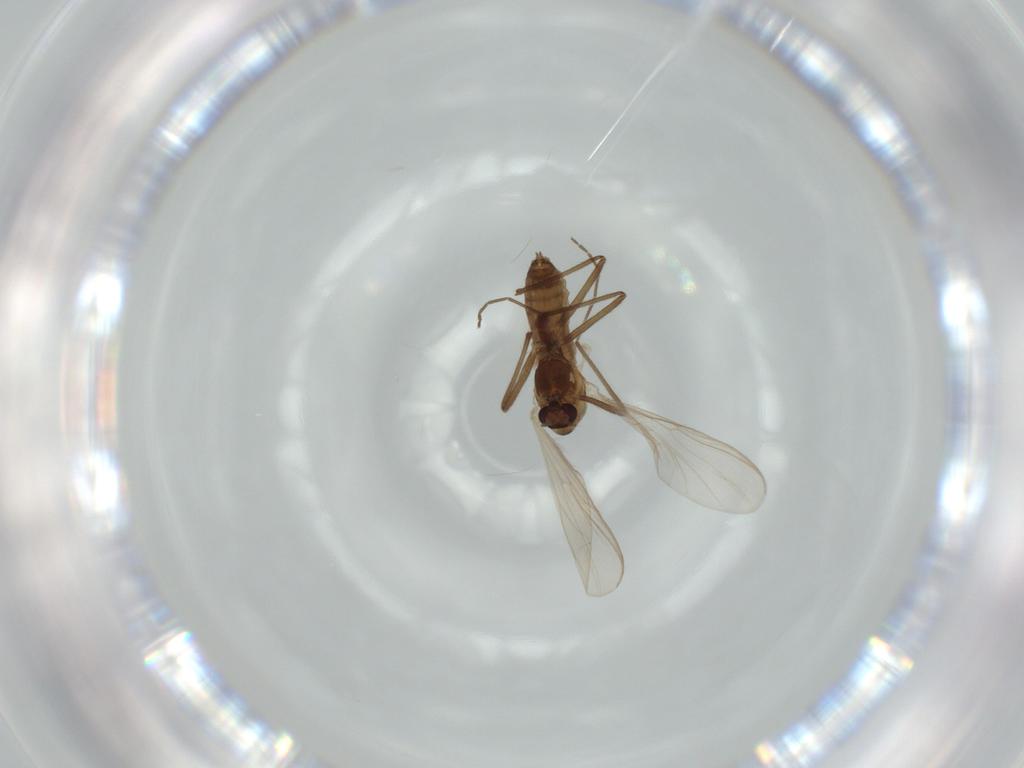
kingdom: Animalia
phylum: Arthropoda
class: Insecta
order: Diptera
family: Chironomidae
